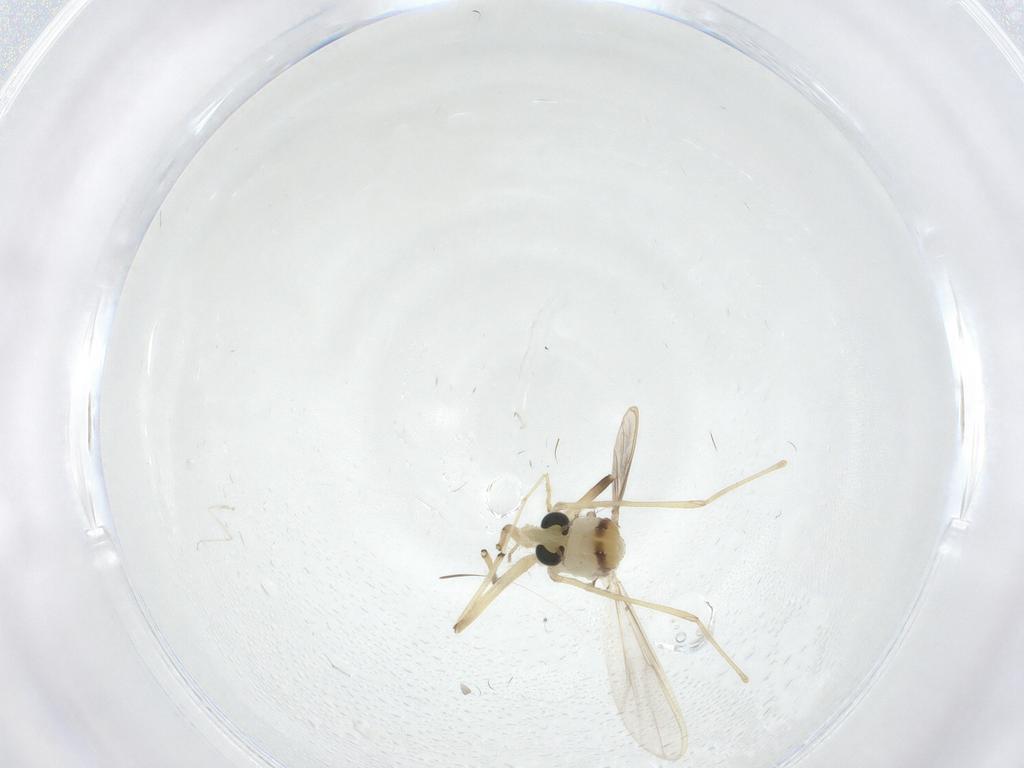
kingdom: Animalia
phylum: Arthropoda
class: Insecta
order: Diptera
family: Chironomidae
